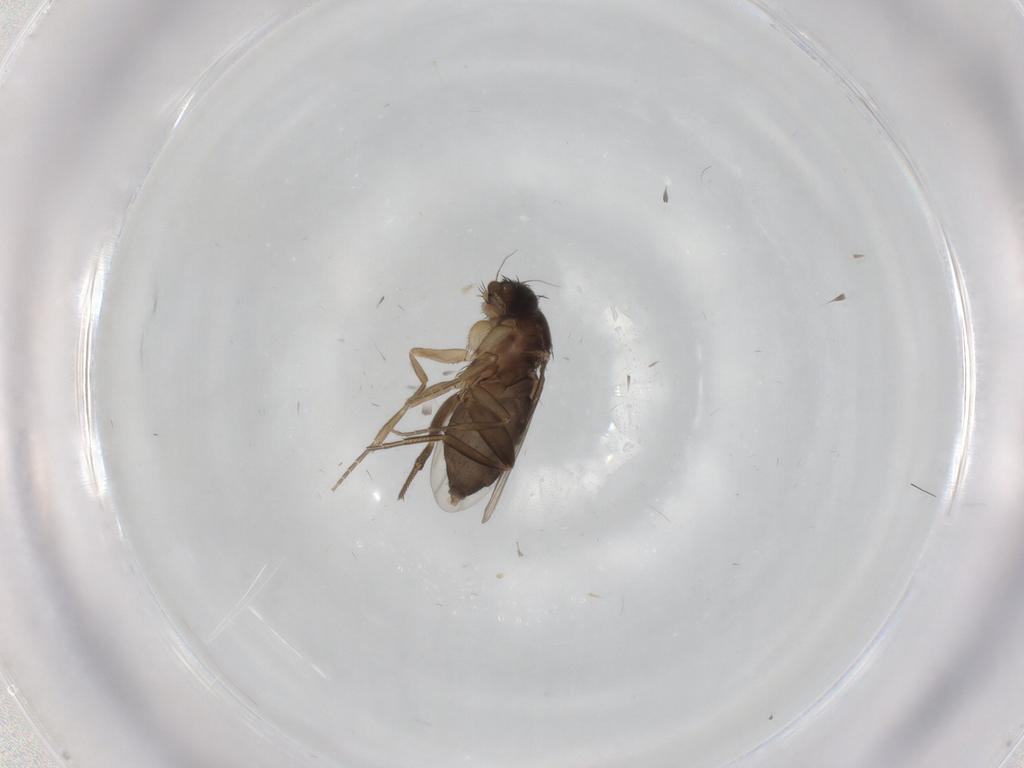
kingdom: Animalia
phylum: Arthropoda
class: Insecta
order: Diptera
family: Phoridae
